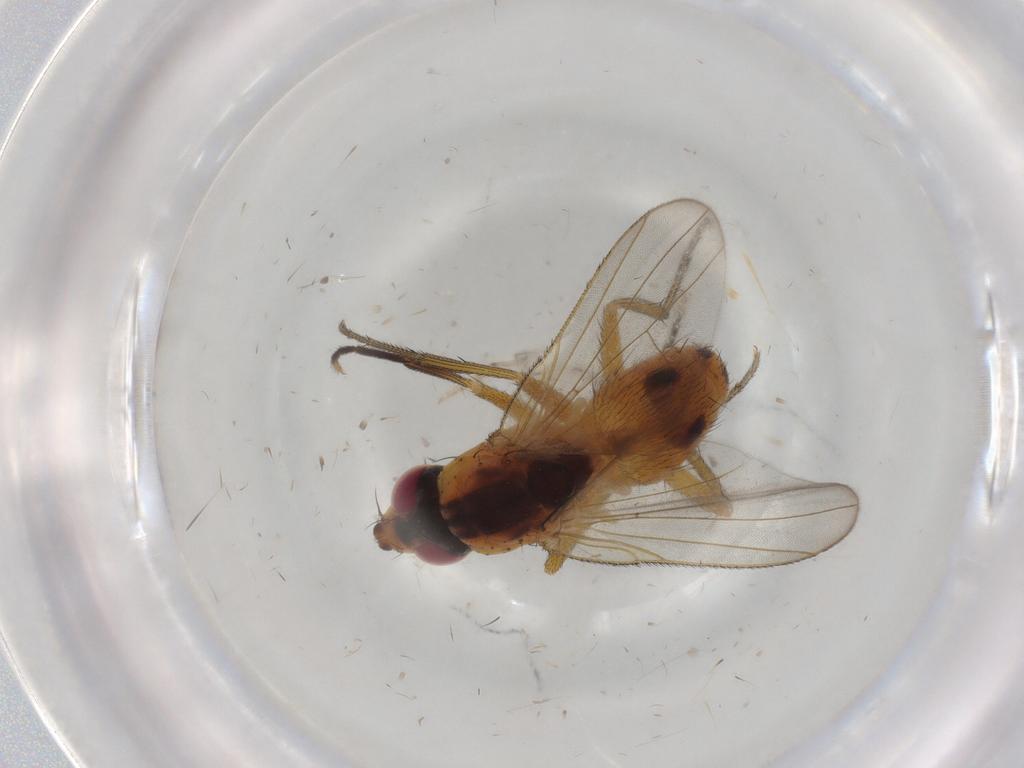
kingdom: Animalia
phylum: Arthropoda
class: Insecta
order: Diptera
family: Muscidae
